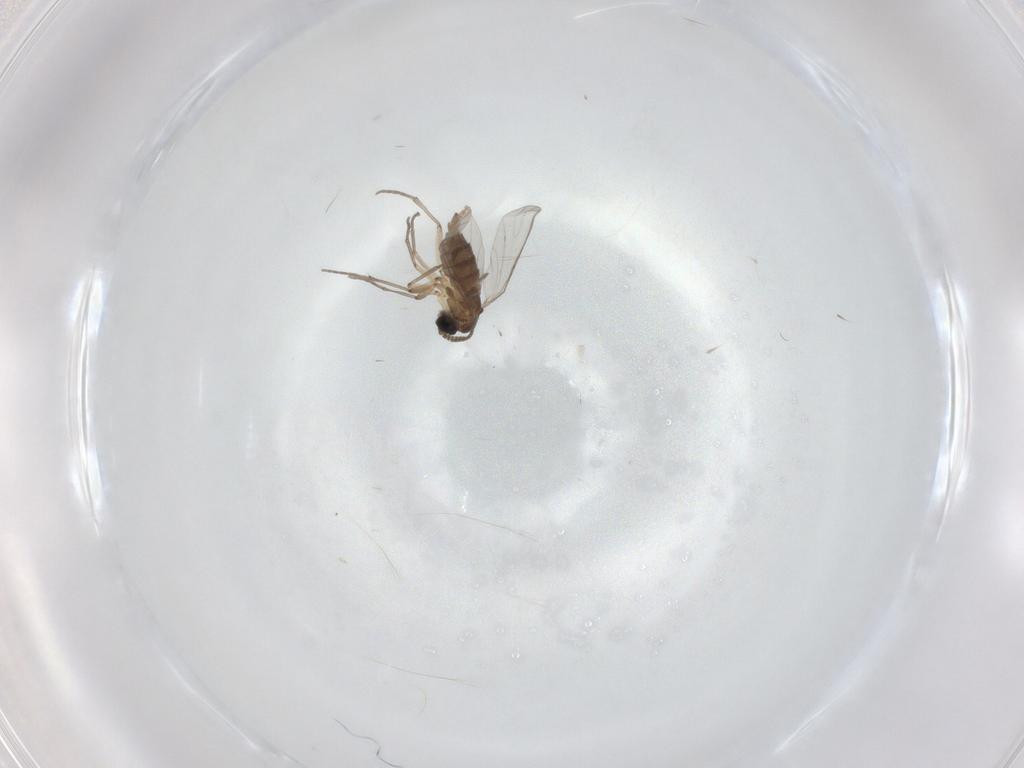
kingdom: Animalia
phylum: Arthropoda
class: Insecta
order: Diptera
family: Sciaridae
